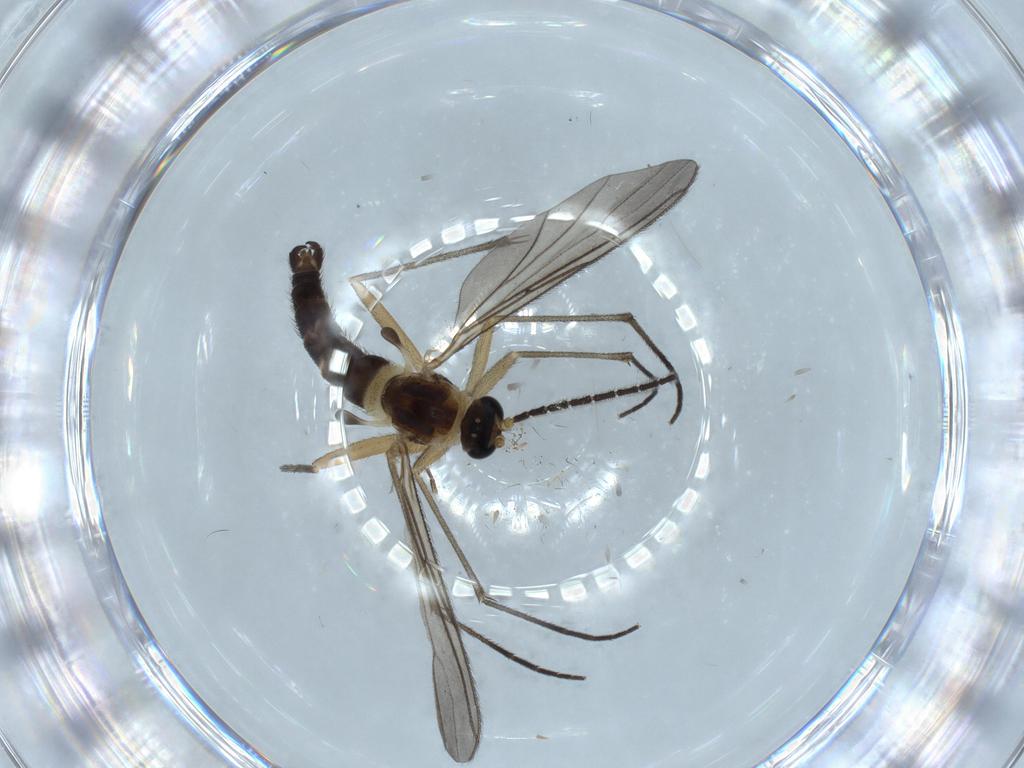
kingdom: Animalia
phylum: Arthropoda
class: Insecta
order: Diptera
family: Sciaridae
